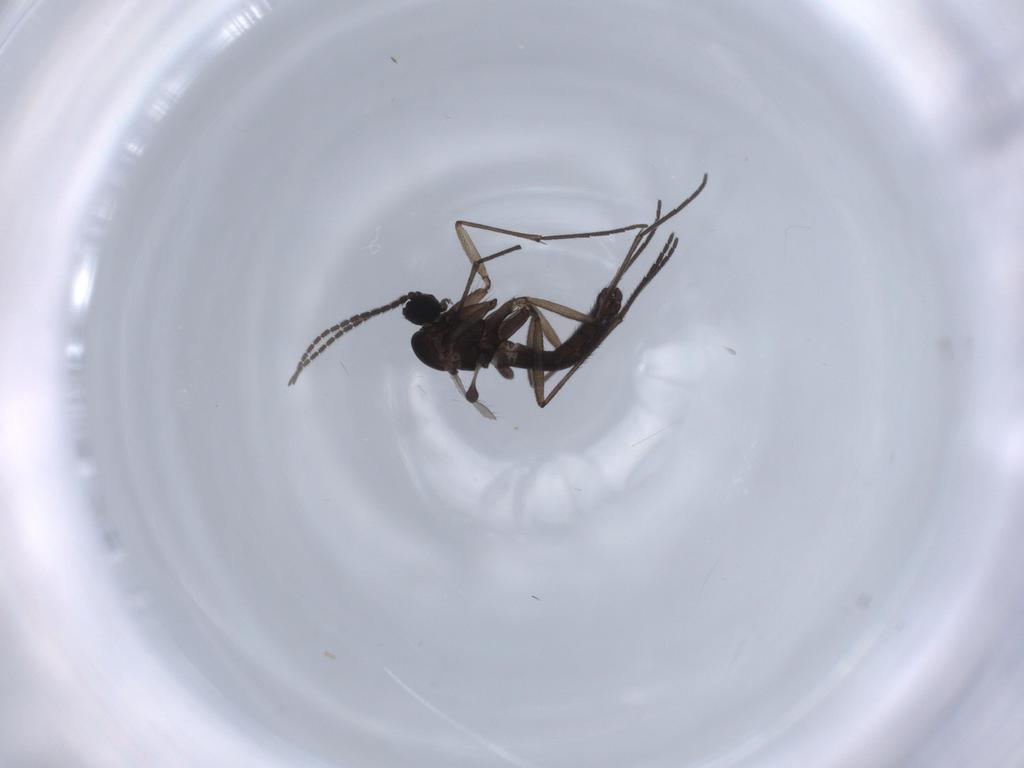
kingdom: Animalia
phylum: Arthropoda
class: Insecta
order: Diptera
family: Sciaridae
